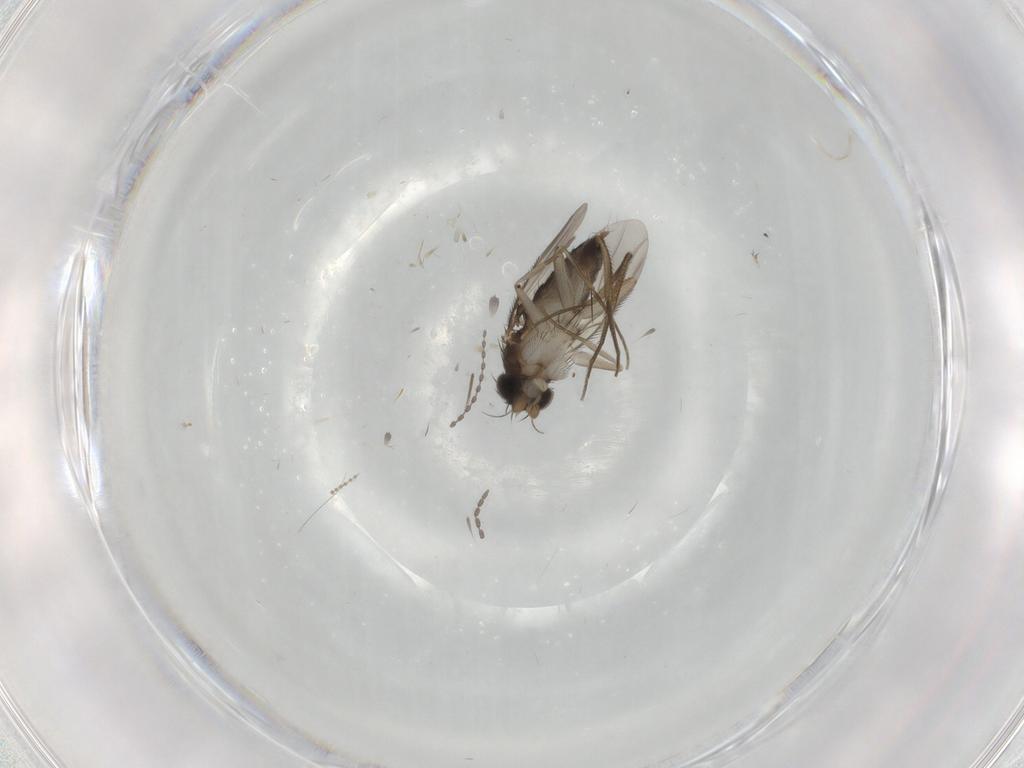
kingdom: Animalia
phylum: Arthropoda
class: Insecta
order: Diptera
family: Phoridae
